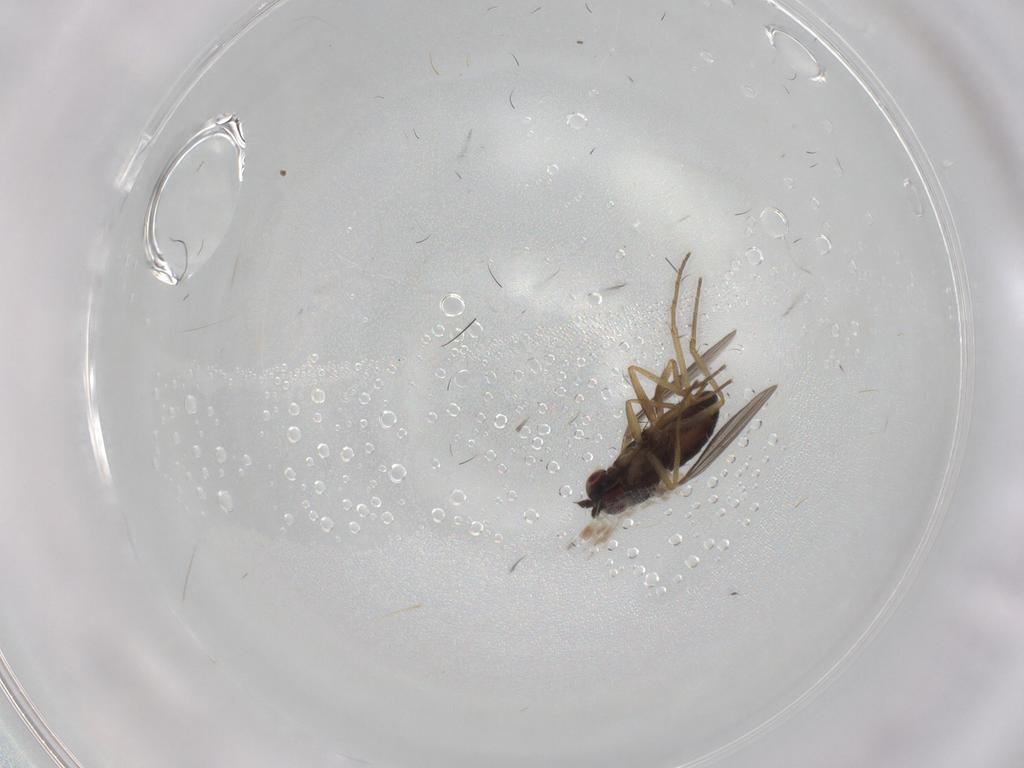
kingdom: Animalia
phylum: Arthropoda
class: Insecta
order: Diptera
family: Dolichopodidae
